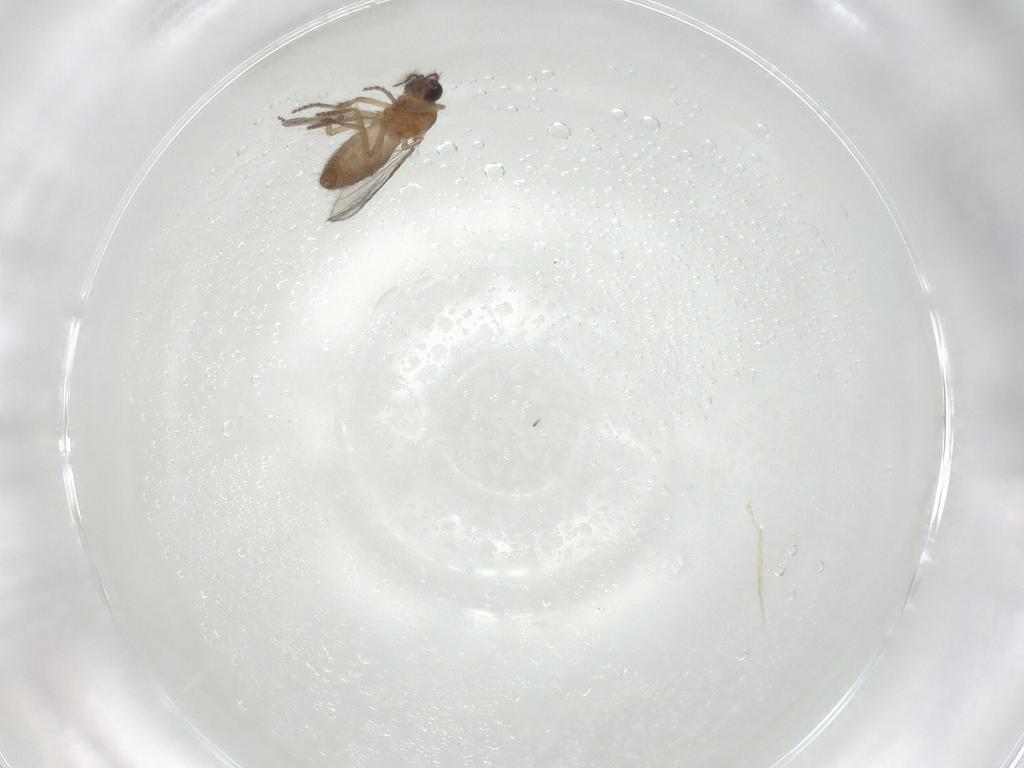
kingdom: Animalia
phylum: Arthropoda
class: Insecta
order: Diptera
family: Ceratopogonidae
